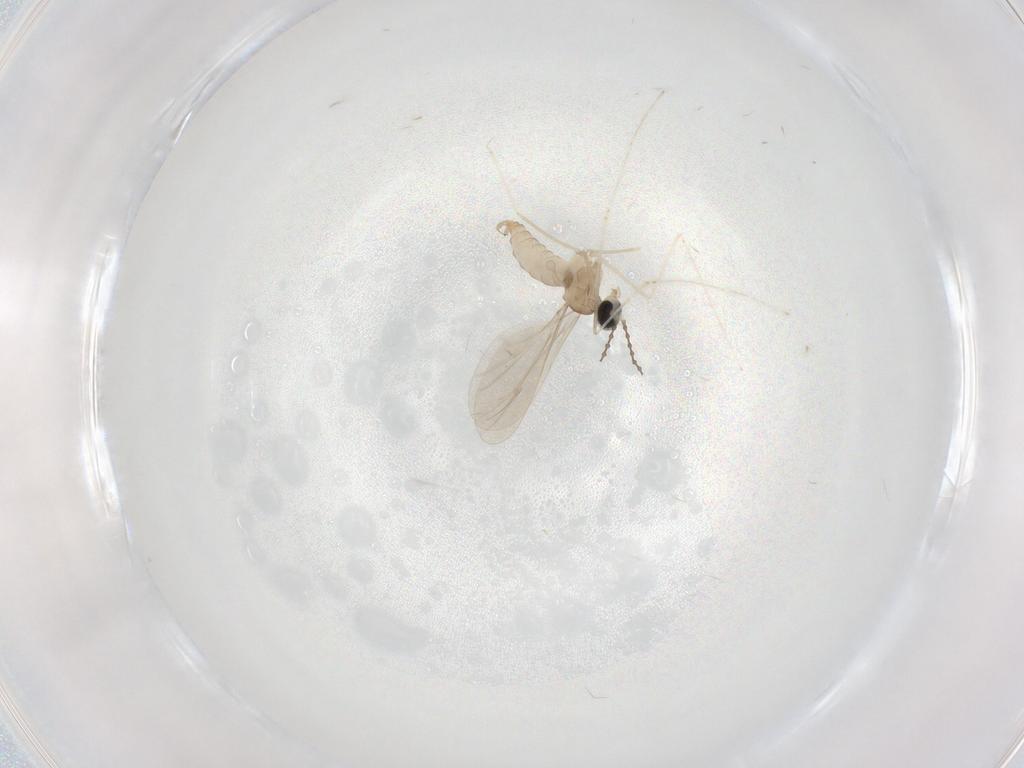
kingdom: Animalia
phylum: Arthropoda
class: Insecta
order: Diptera
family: Cecidomyiidae
